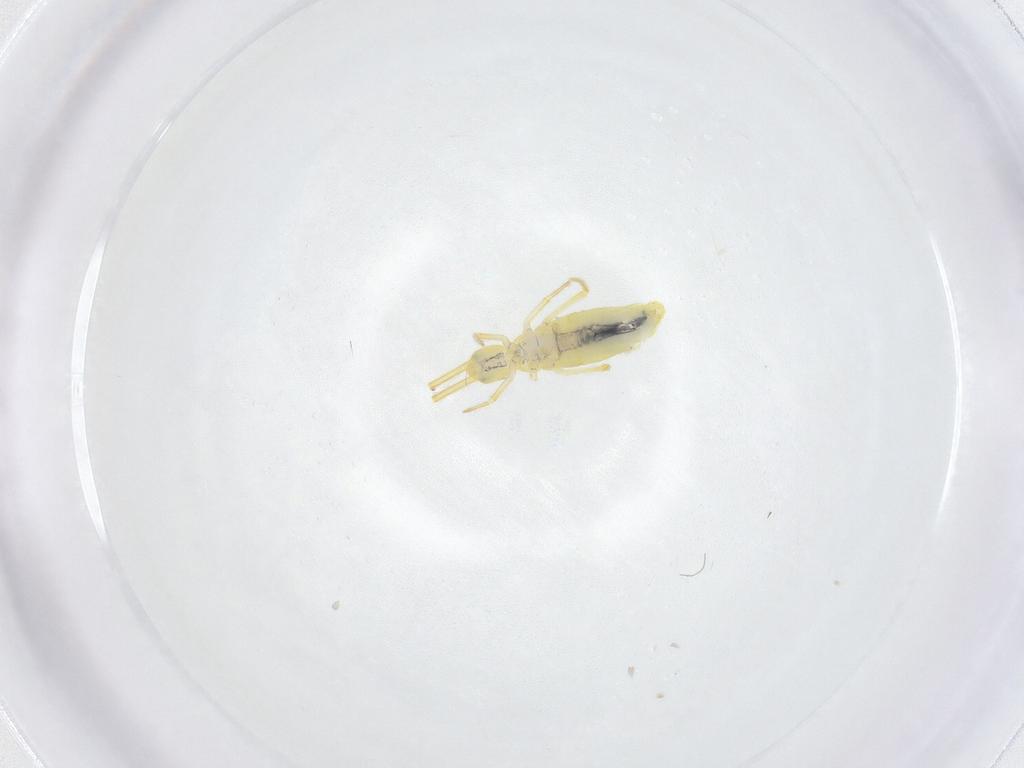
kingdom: Animalia
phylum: Arthropoda
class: Collembola
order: Entomobryomorpha
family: Paronellidae
